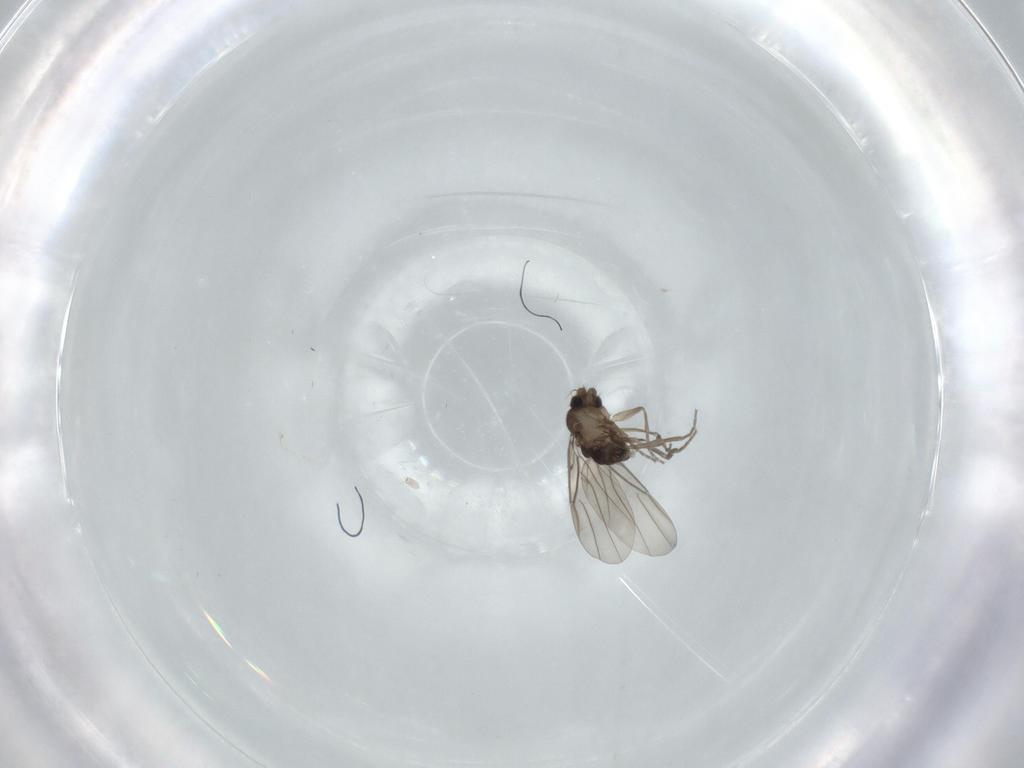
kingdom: Animalia
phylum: Arthropoda
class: Insecta
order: Diptera
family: Phoridae
